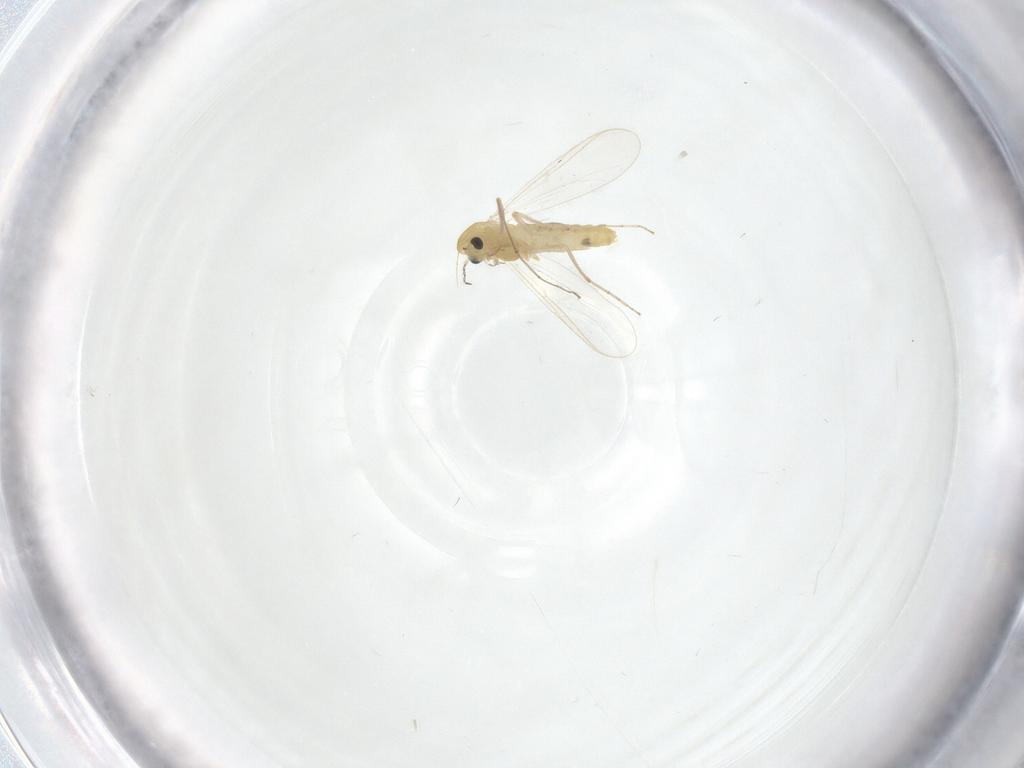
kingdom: Animalia
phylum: Arthropoda
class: Insecta
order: Diptera
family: Chironomidae
